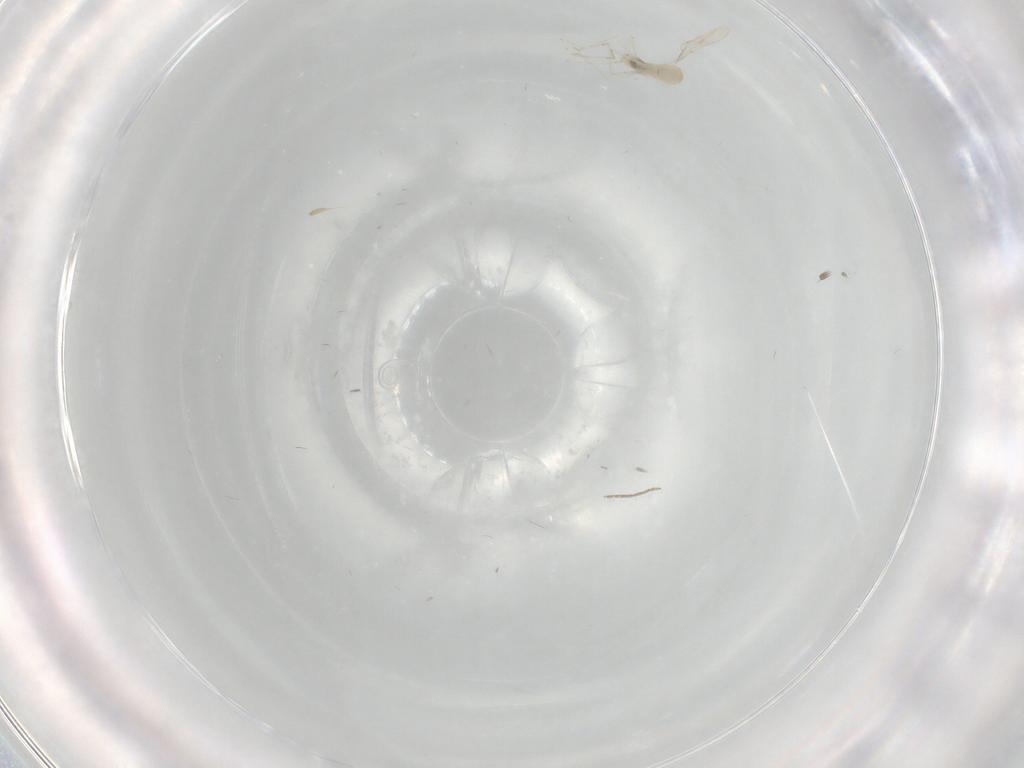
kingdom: Animalia
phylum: Arthropoda
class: Insecta
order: Diptera
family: Cecidomyiidae
